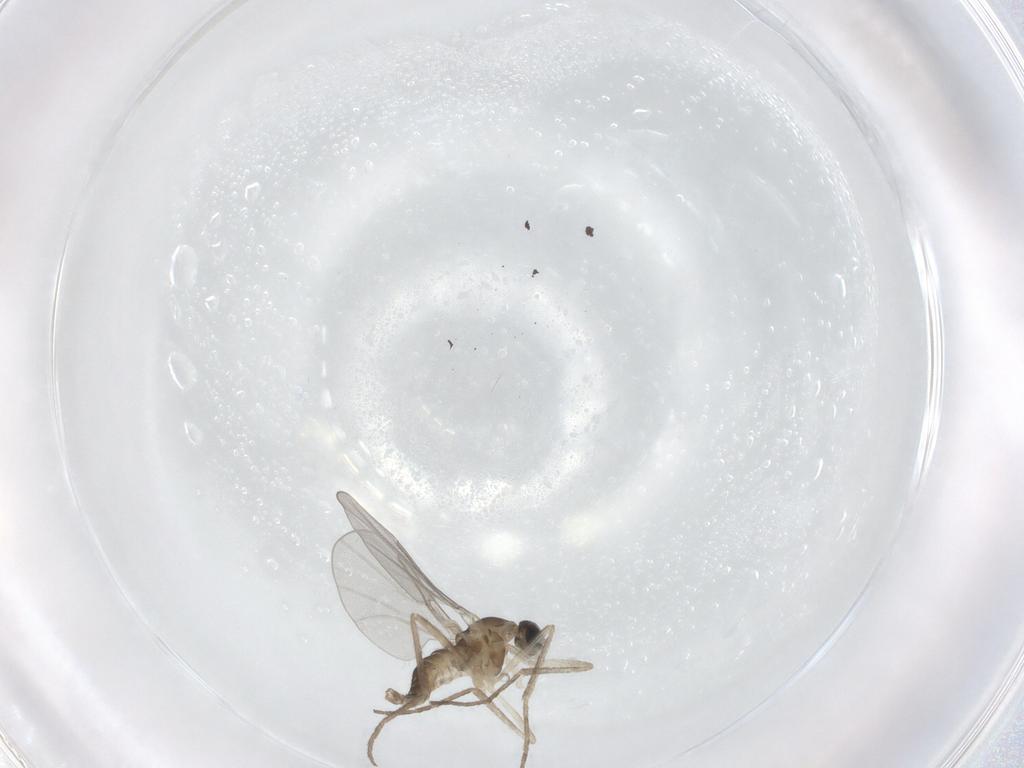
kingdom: Animalia
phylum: Arthropoda
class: Insecta
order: Diptera
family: Cecidomyiidae
